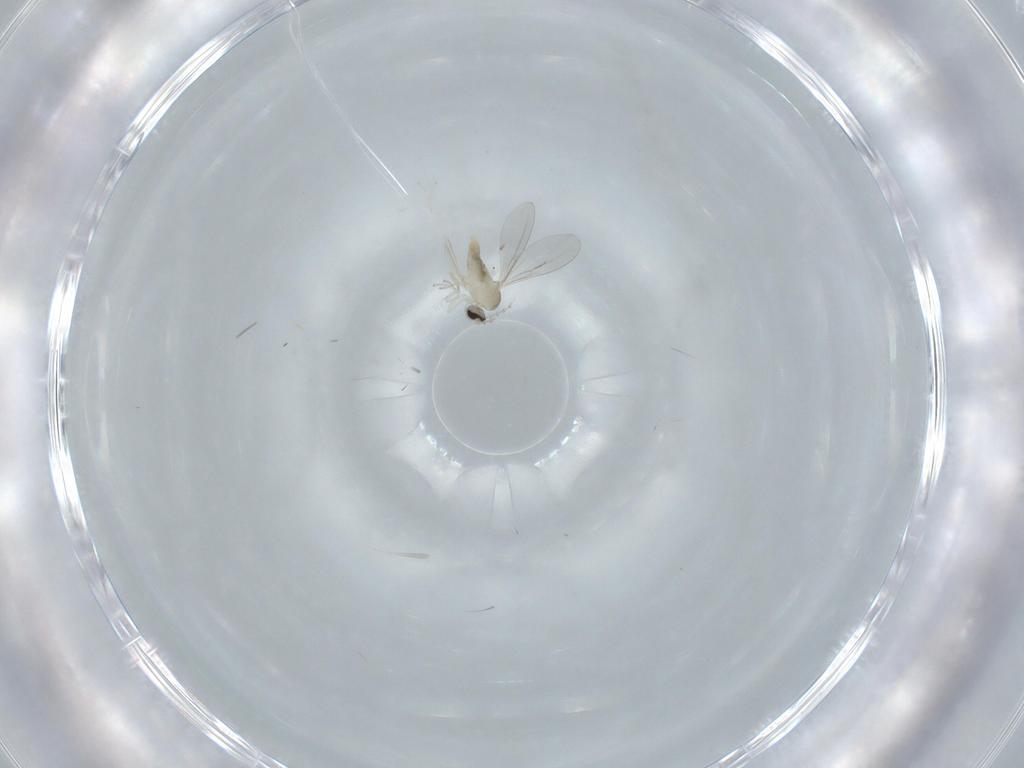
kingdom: Animalia
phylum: Arthropoda
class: Insecta
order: Diptera
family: Cecidomyiidae
